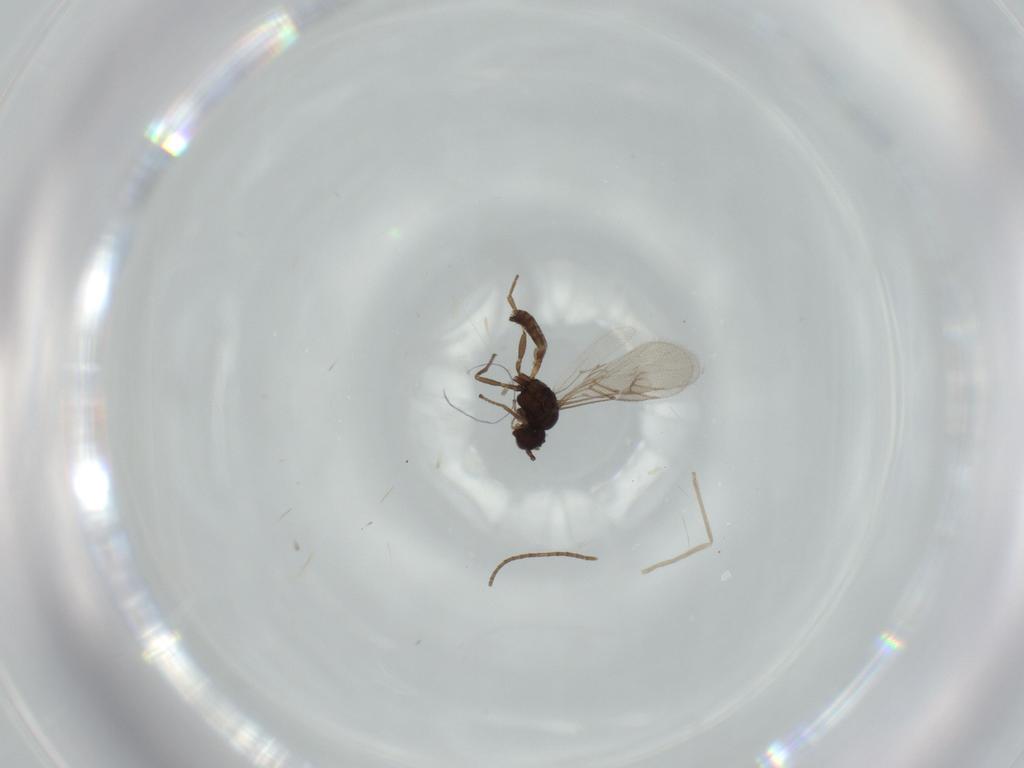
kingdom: Animalia
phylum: Arthropoda
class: Insecta
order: Hymenoptera
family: Braconidae
